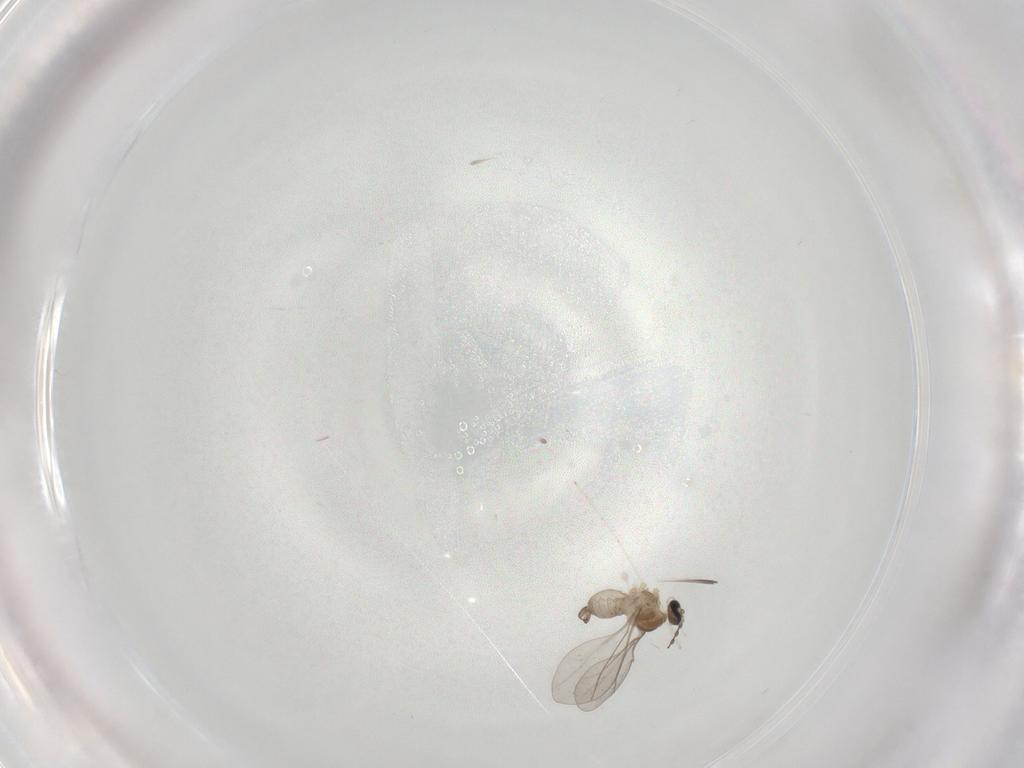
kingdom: Animalia
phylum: Arthropoda
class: Insecta
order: Diptera
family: Cecidomyiidae
